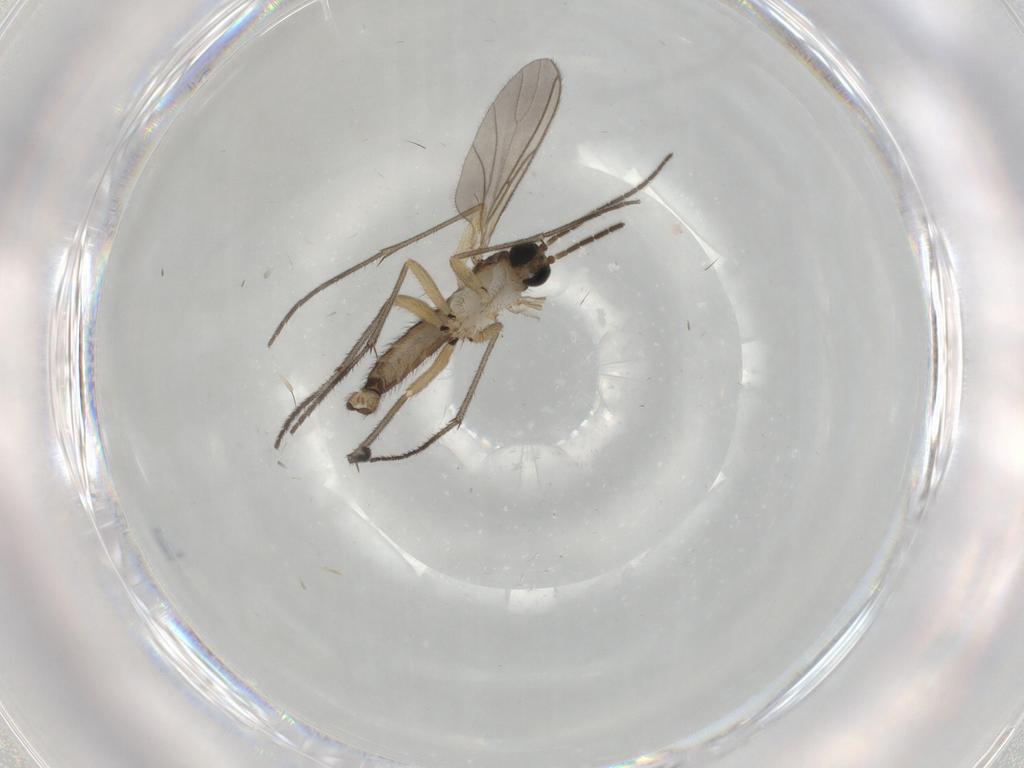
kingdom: Animalia
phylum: Arthropoda
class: Insecta
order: Diptera
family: Sciaridae
